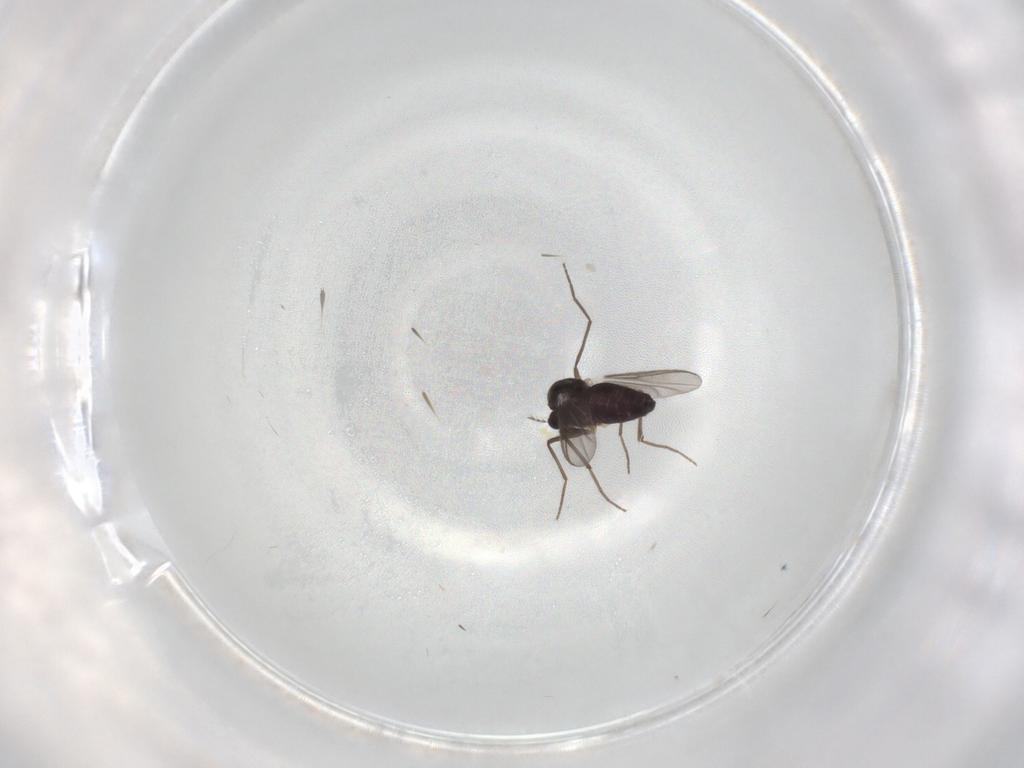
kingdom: Animalia
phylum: Arthropoda
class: Insecta
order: Diptera
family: Chironomidae
